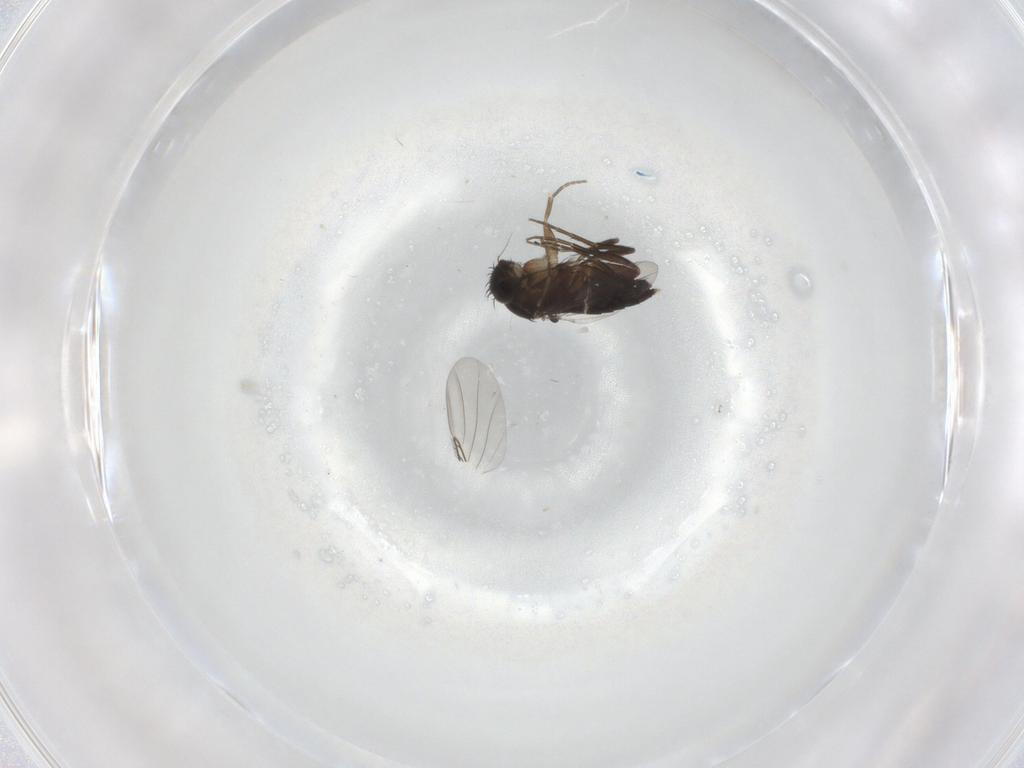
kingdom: Animalia
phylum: Arthropoda
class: Insecta
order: Diptera
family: Phoridae
